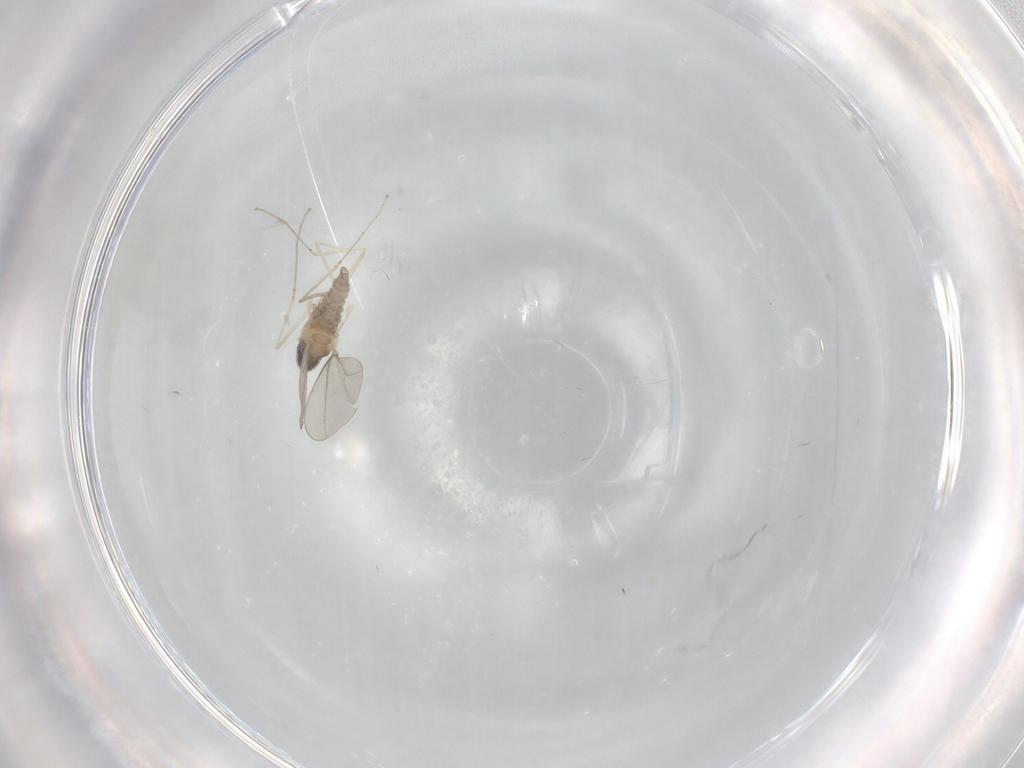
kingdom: Animalia
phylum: Arthropoda
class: Insecta
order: Diptera
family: Cecidomyiidae
